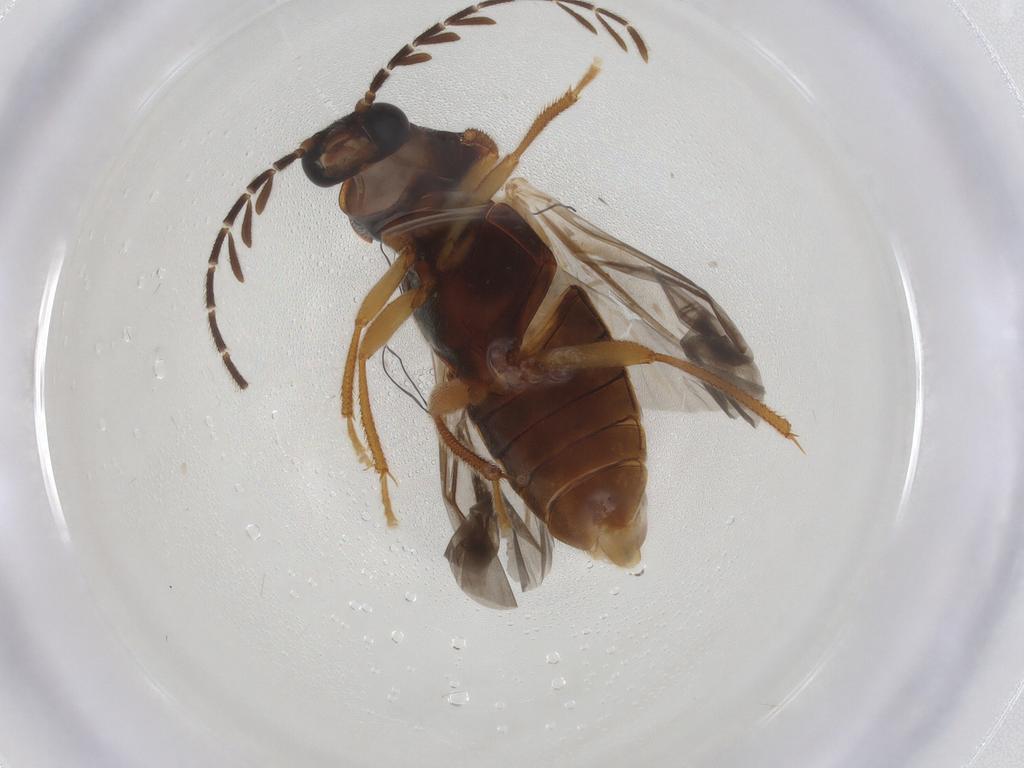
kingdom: Animalia
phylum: Arthropoda
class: Insecta
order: Coleoptera
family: Ptilodactylidae
